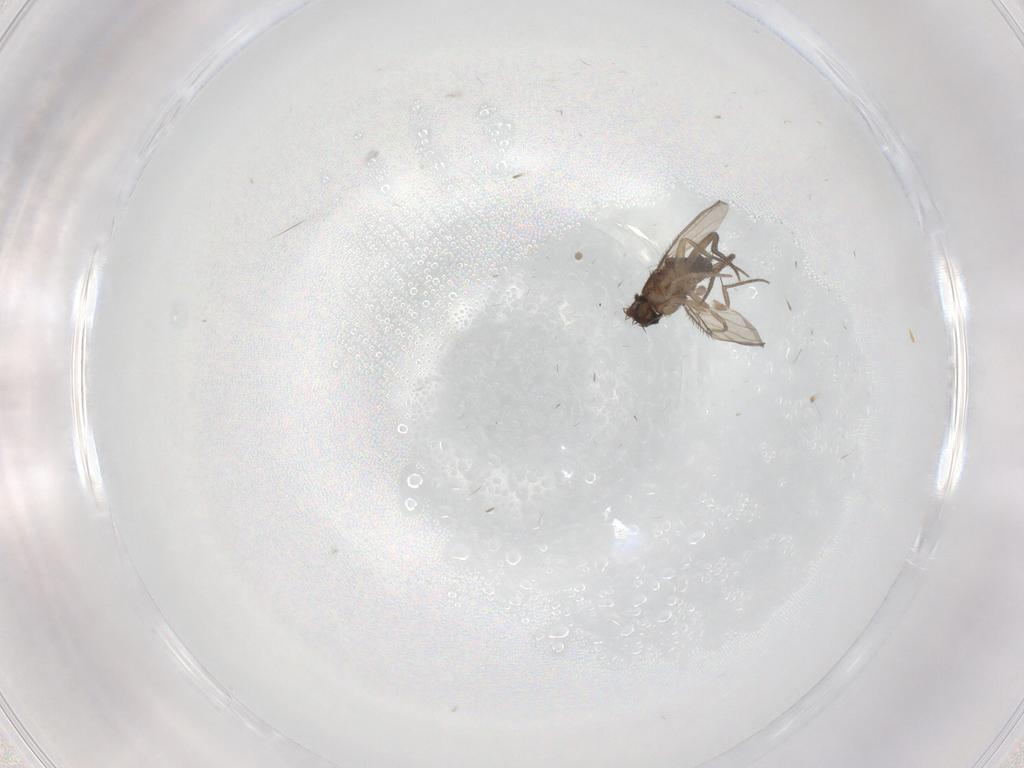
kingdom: Animalia
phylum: Arthropoda
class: Insecta
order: Diptera
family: Phoridae
